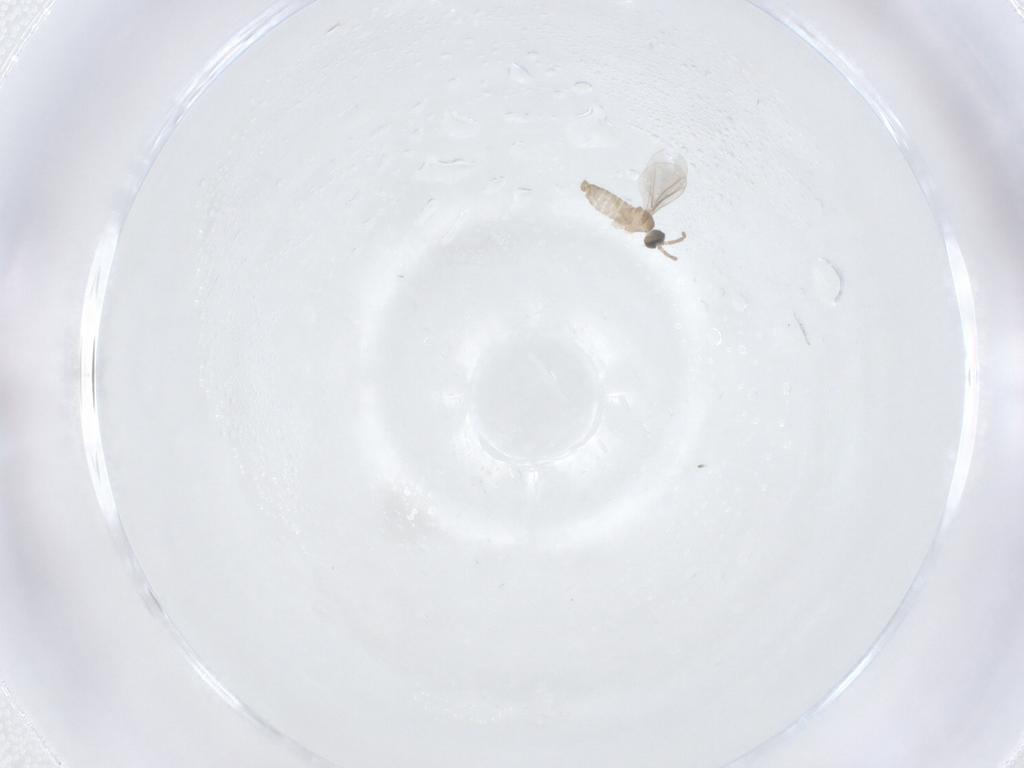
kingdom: Animalia
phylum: Arthropoda
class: Insecta
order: Diptera
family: Cecidomyiidae
